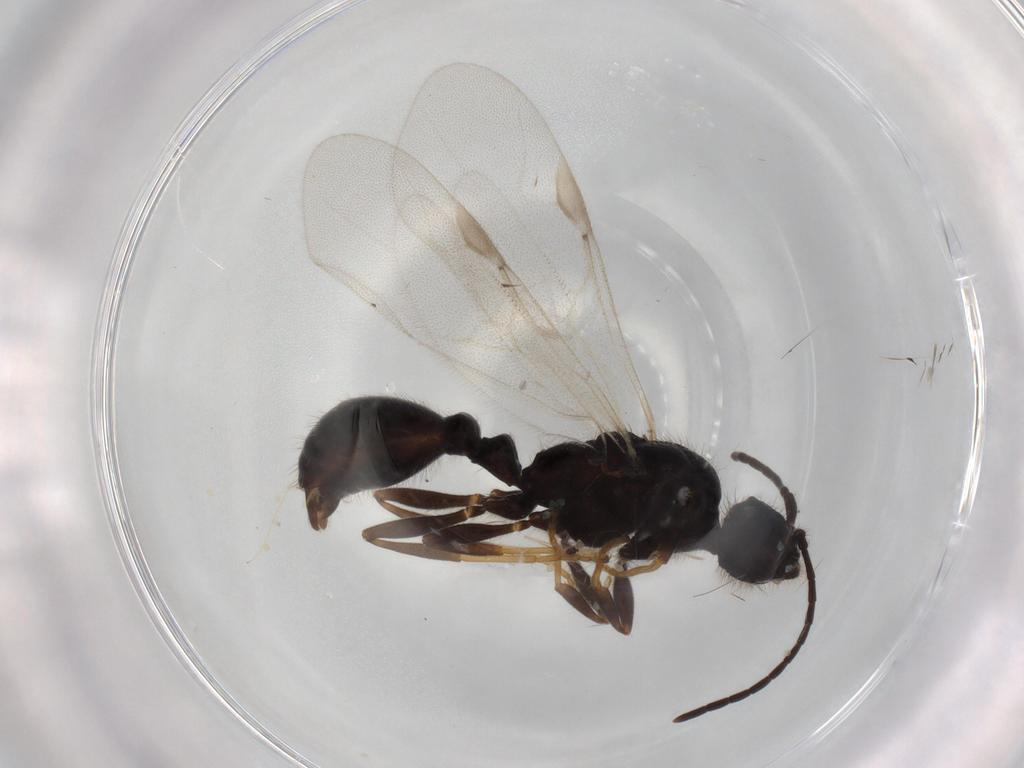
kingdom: Animalia
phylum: Arthropoda
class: Insecta
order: Hymenoptera
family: Formicidae
